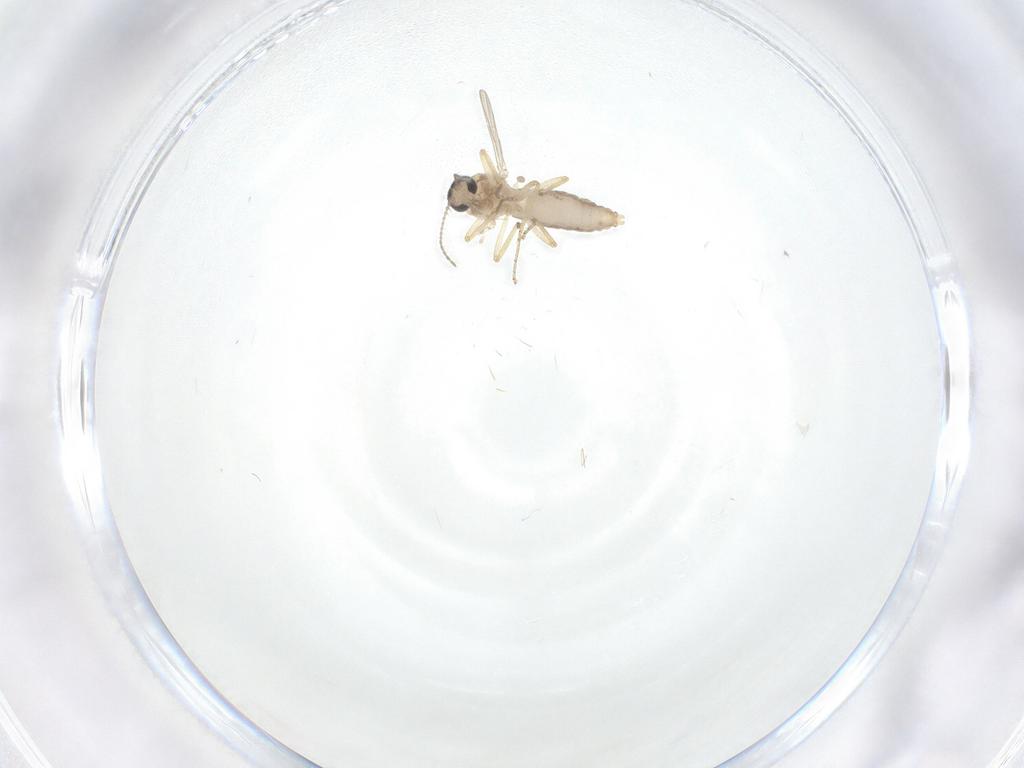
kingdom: Animalia
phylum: Arthropoda
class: Insecta
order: Diptera
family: Ceratopogonidae
